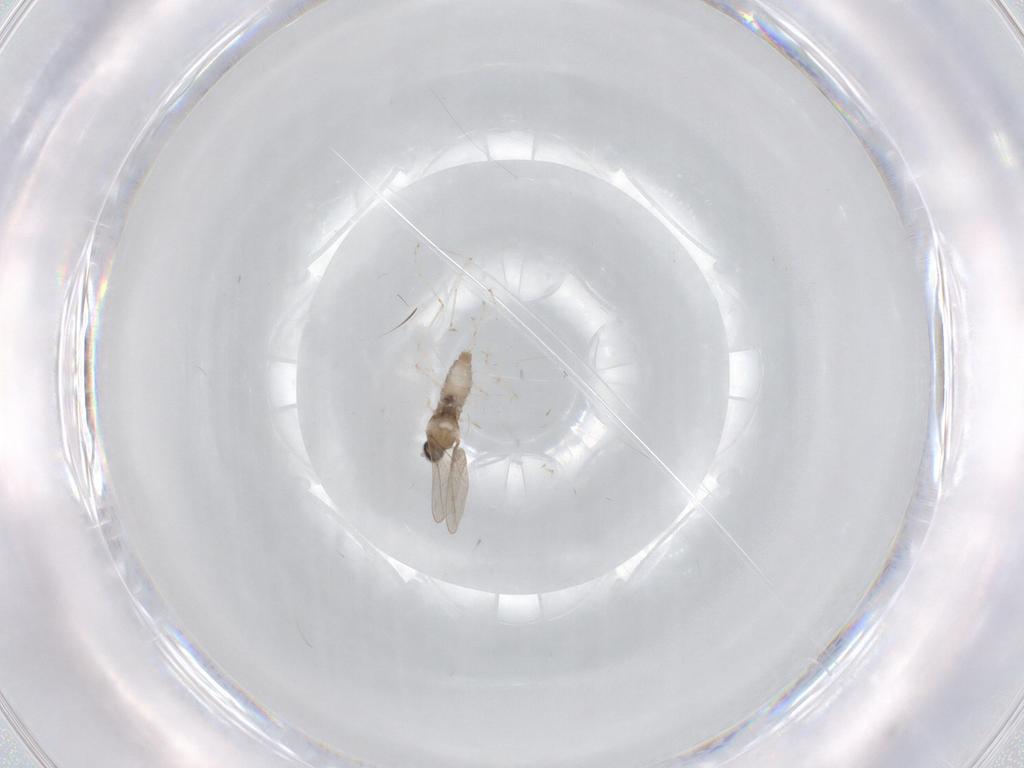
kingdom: Animalia
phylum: Arthropoda
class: Insecta
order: Diptera
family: Cecidomyiidae
